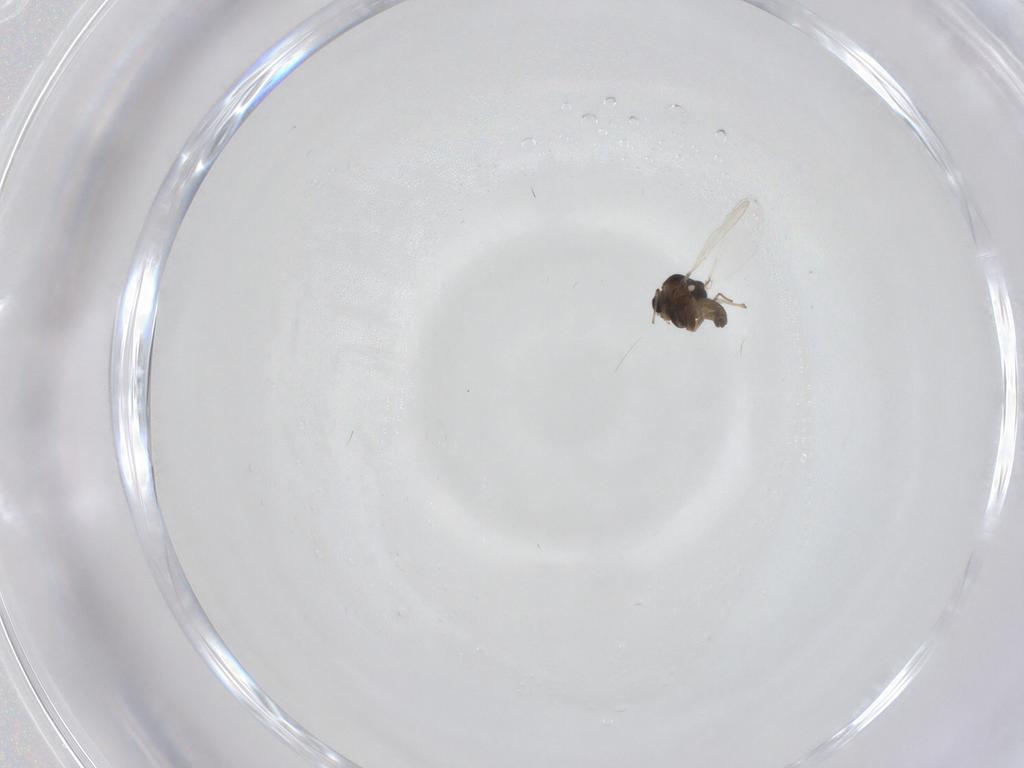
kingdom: Animalia
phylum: Arthropoda
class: Insecta
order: Diptera
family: Chironomidae
